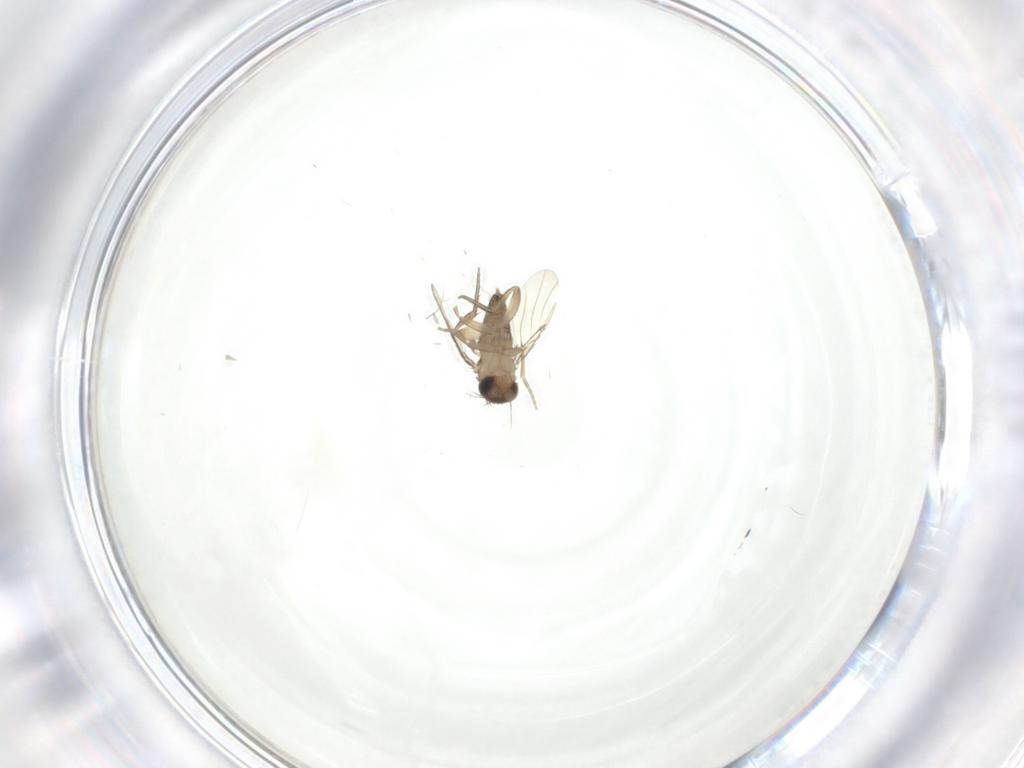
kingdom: Animalia
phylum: Arthropoda
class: Insecta
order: Diptera
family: Phoridae
